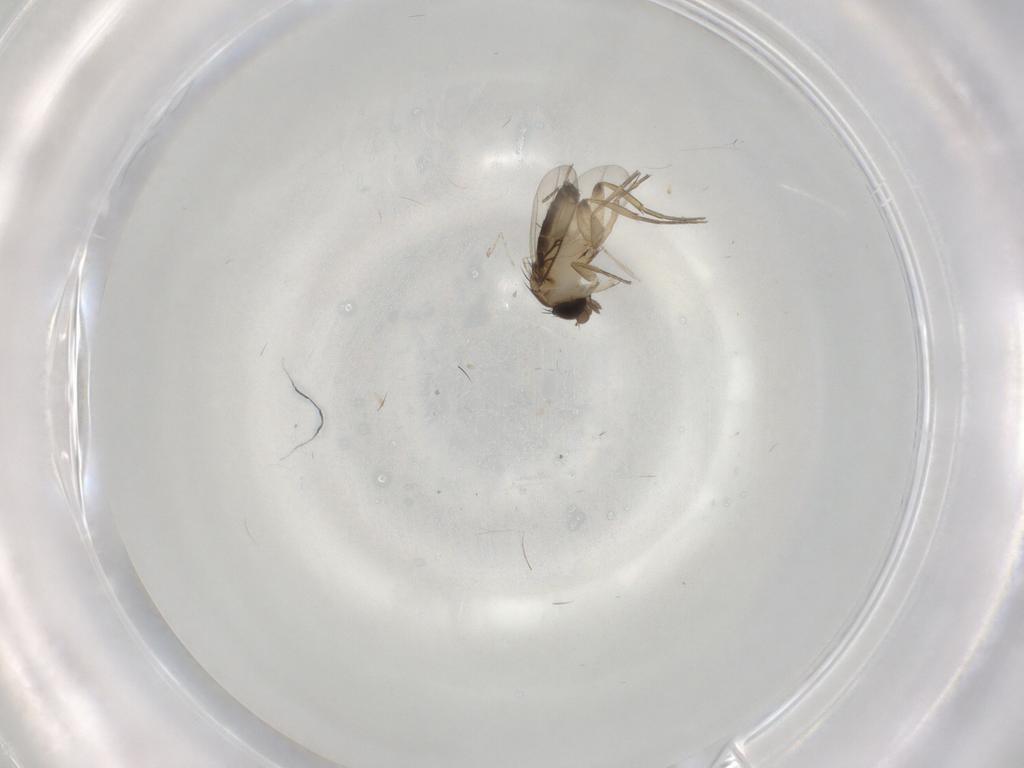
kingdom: Animalia
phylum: Arthropoda
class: Insecta
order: Diptera
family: Phoridae
